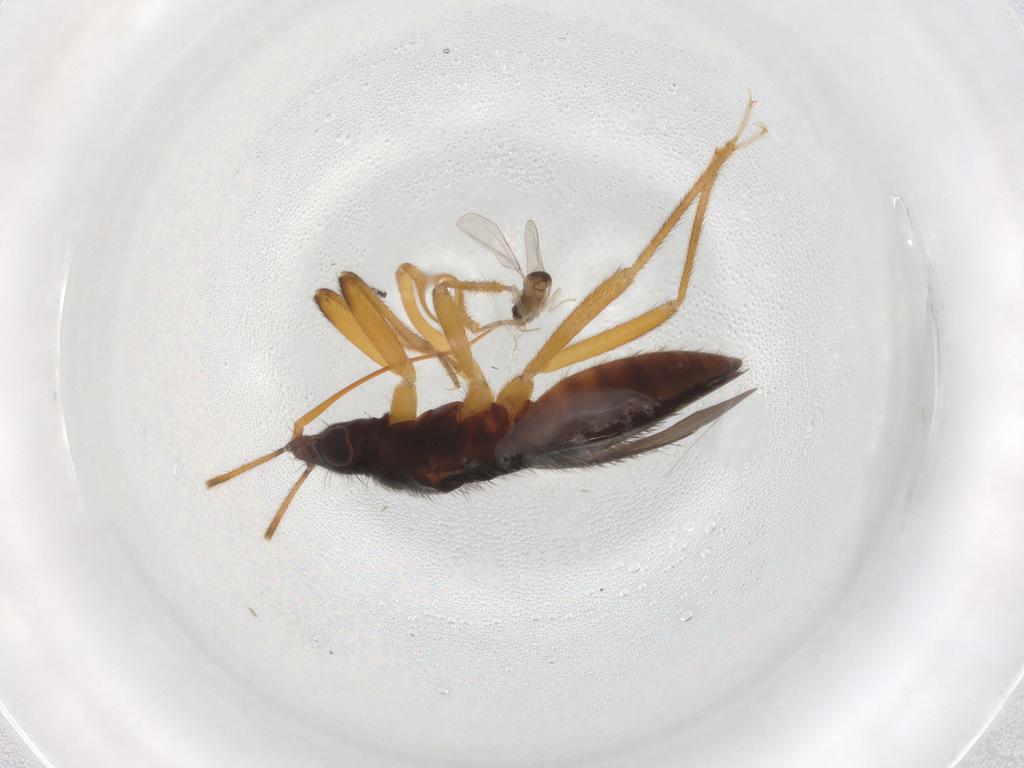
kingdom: Animalia
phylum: Arthropoda
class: Insecta
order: Diptera
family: Cecidomyiidae
